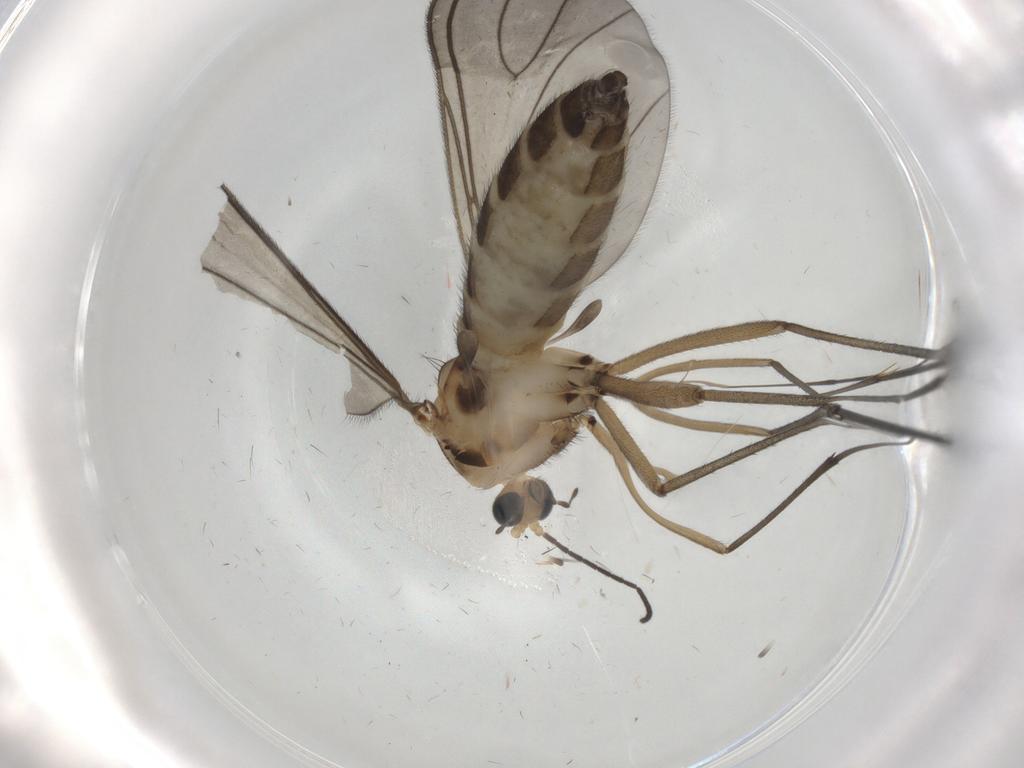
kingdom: Animalia
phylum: Arthropoda
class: Insecta
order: Diptera
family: Sciaridae
